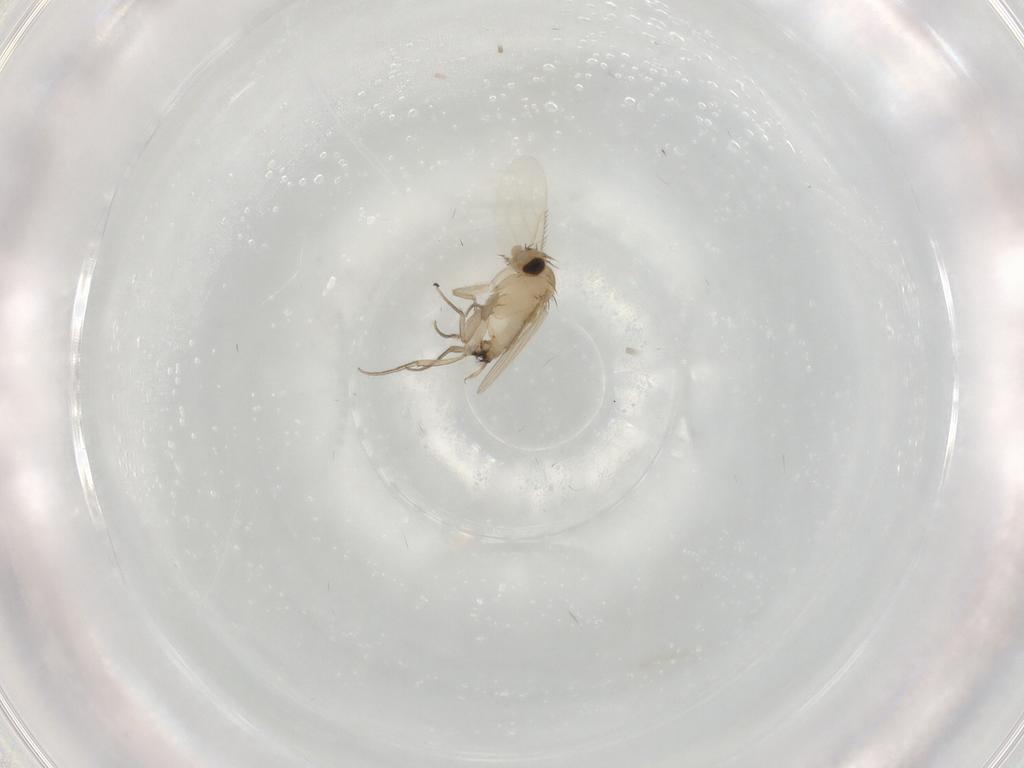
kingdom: Animalia
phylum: Arthropoda
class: Insecta
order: Diptera
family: Phoridae
